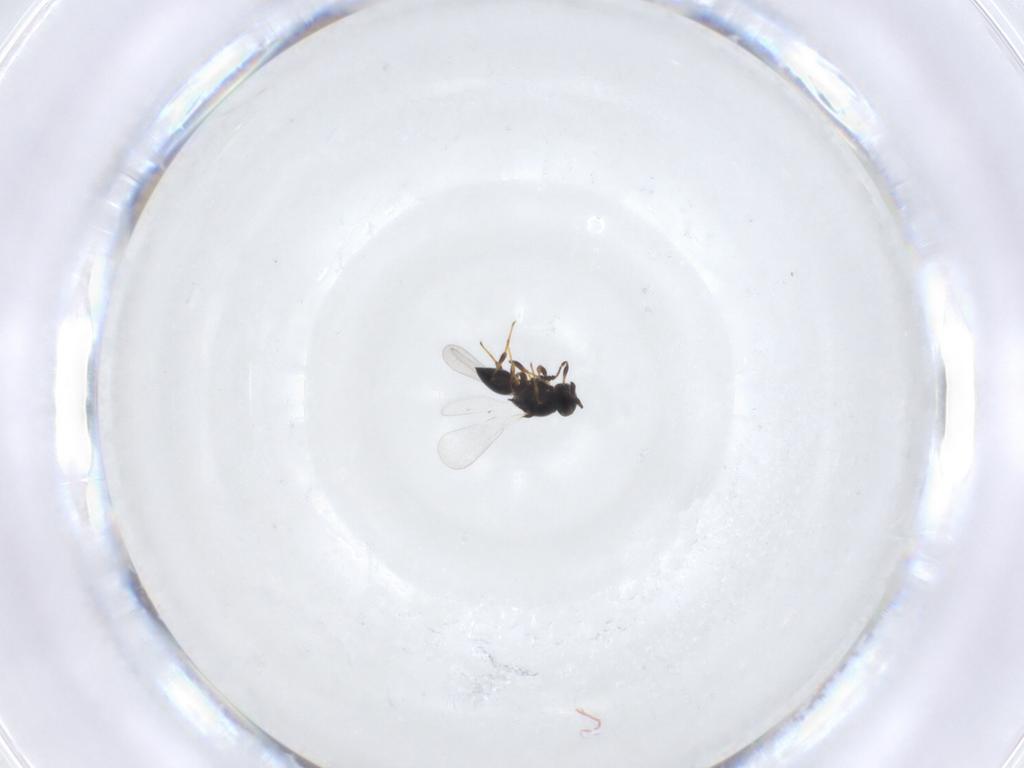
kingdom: Animalia
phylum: Arthropoda
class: Insecta
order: Hymenoptera
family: Platygastridae
